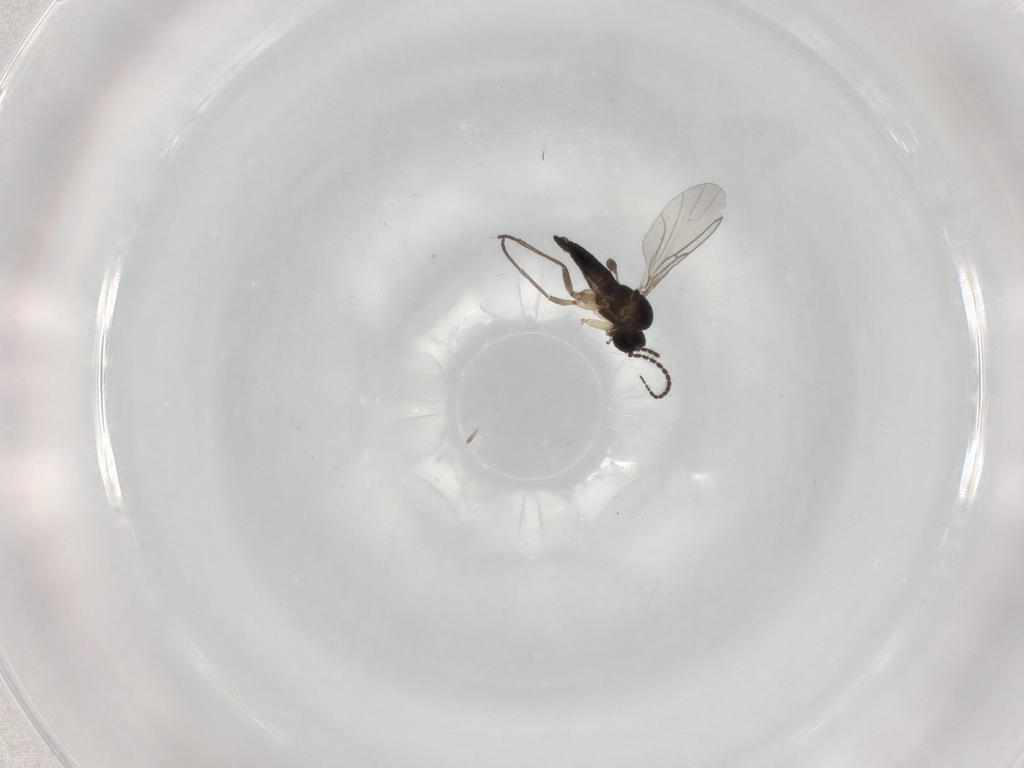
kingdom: Animalia
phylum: Arthropoda
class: Insecta
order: Diptera
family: Sciaridae
